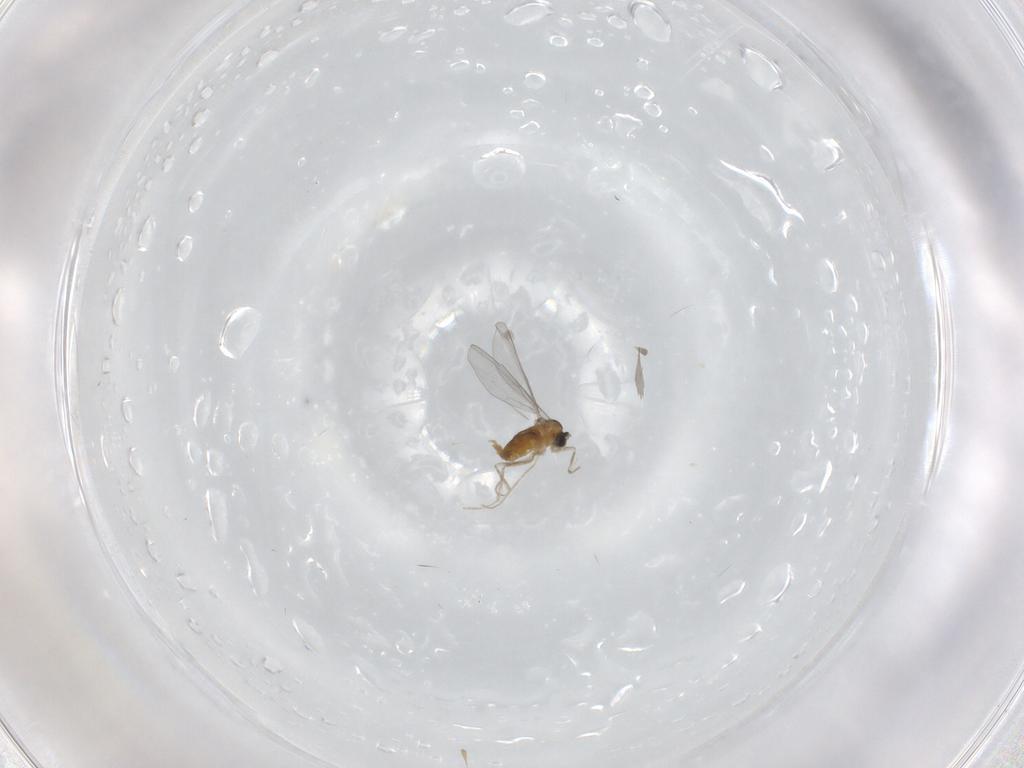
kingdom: Animalia
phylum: Arthropoda
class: Insecta
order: Diptera
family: Cecidomyiidae
